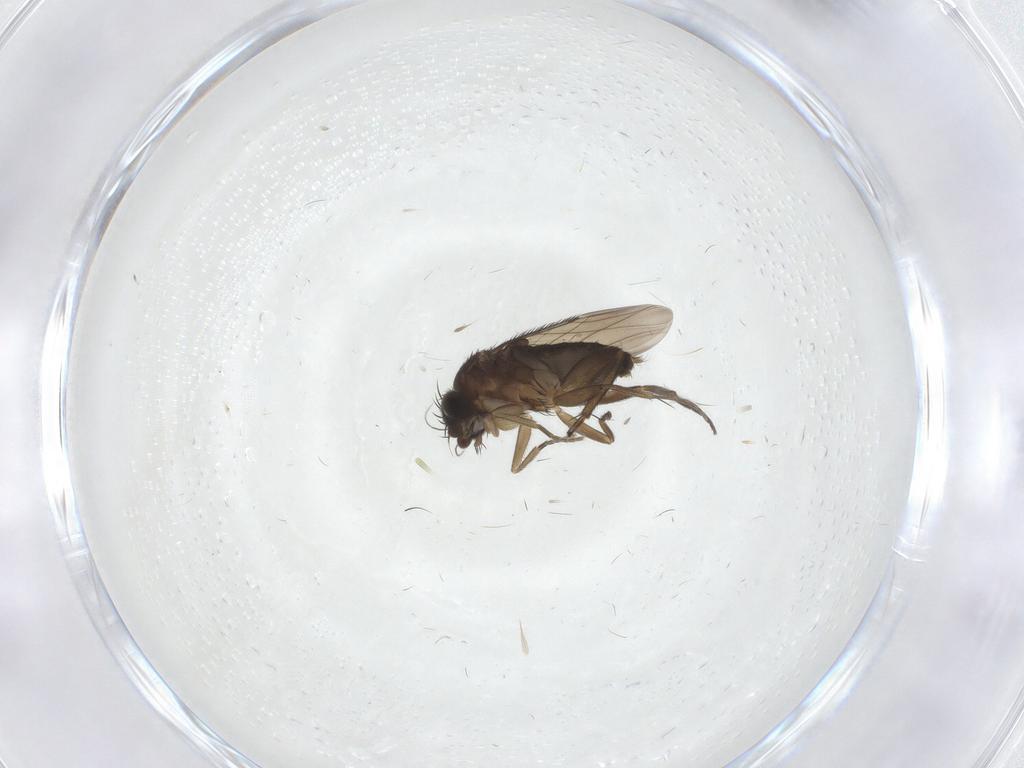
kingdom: Animalia
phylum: Arthropoda
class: Insecta
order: Diptera
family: Phoridae
